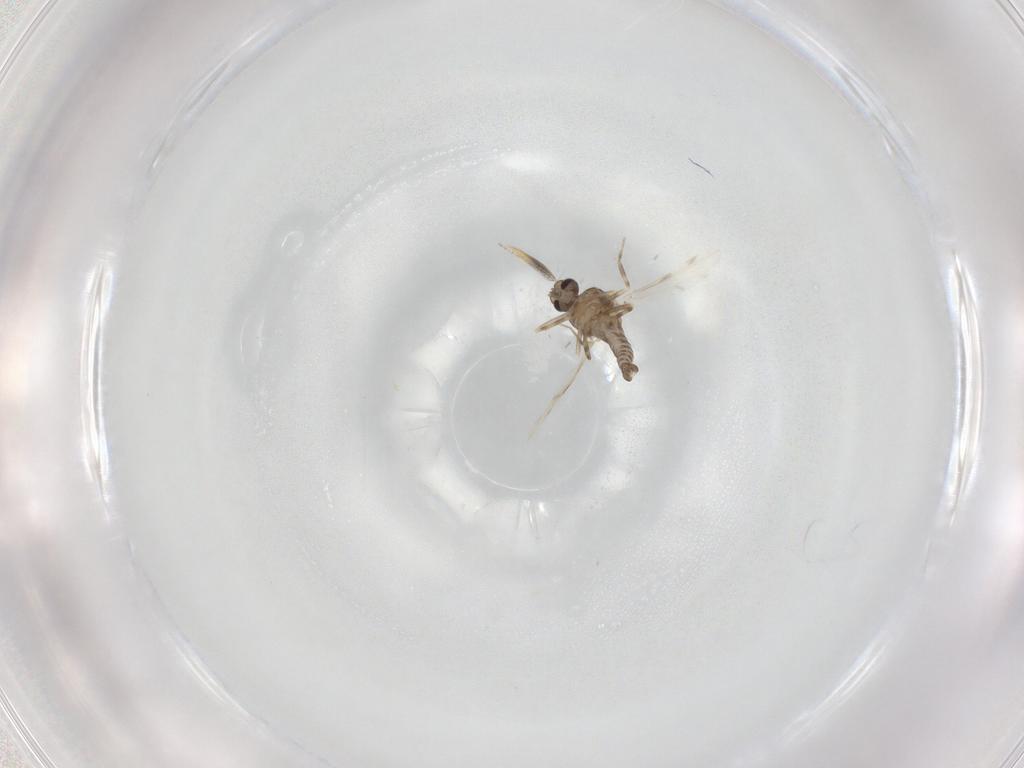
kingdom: Animalia
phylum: Arthropoda
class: Insecta
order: Diptera
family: Ceratopogonidae
